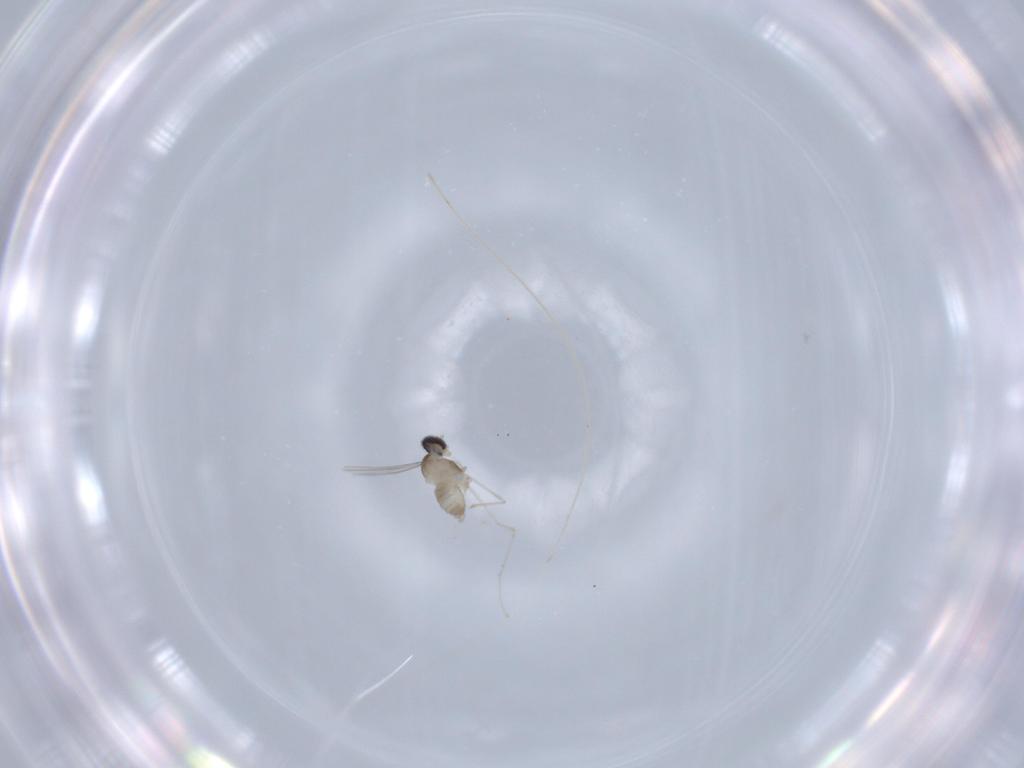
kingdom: Animalia
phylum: Arthropoda
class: Insecta
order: Diptera
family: Cecidomyiidae
